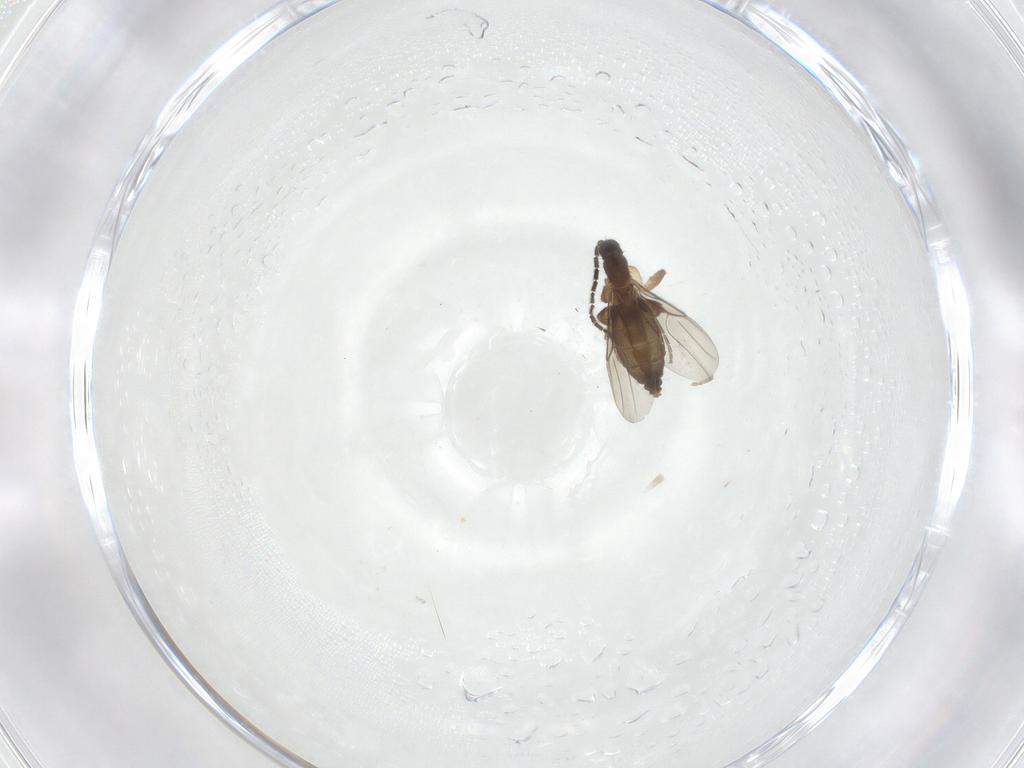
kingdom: Animalia
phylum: Arthropoda
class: Insecta
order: Diptera
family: Sciaridae
